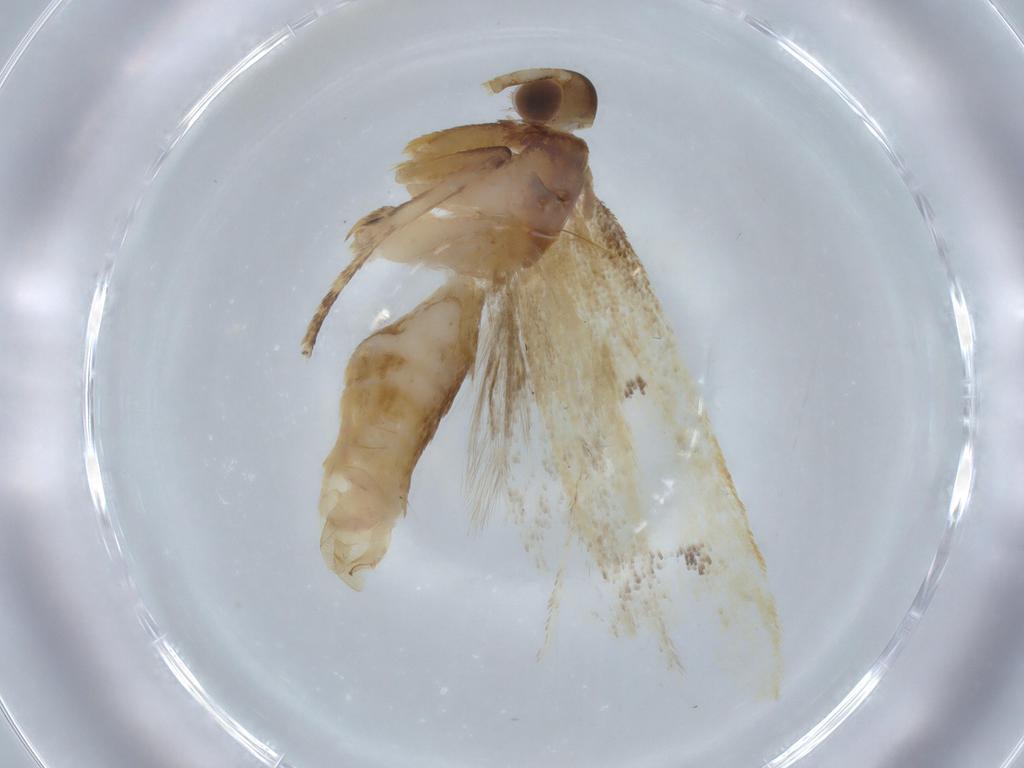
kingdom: Animalia
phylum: Arthropoda
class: Insecta
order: Lepidoptera
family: Lecithoceridae
